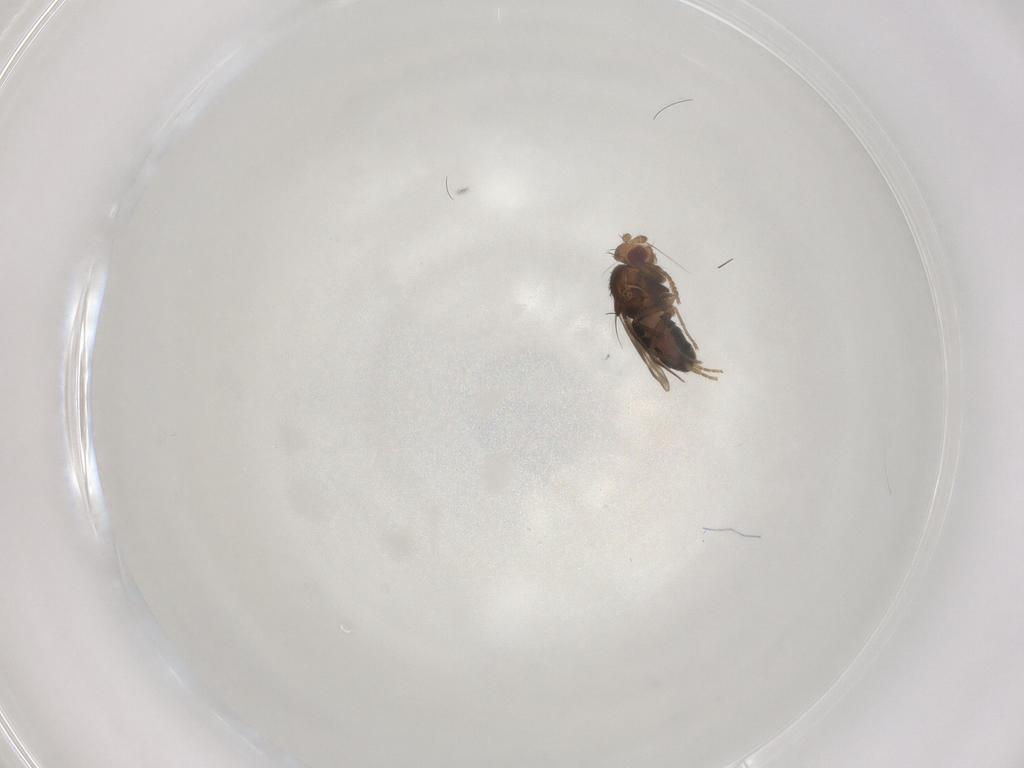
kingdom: Animalia
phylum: Arthropoda
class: Insecta
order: Diptera
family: Sphaeroceridae
